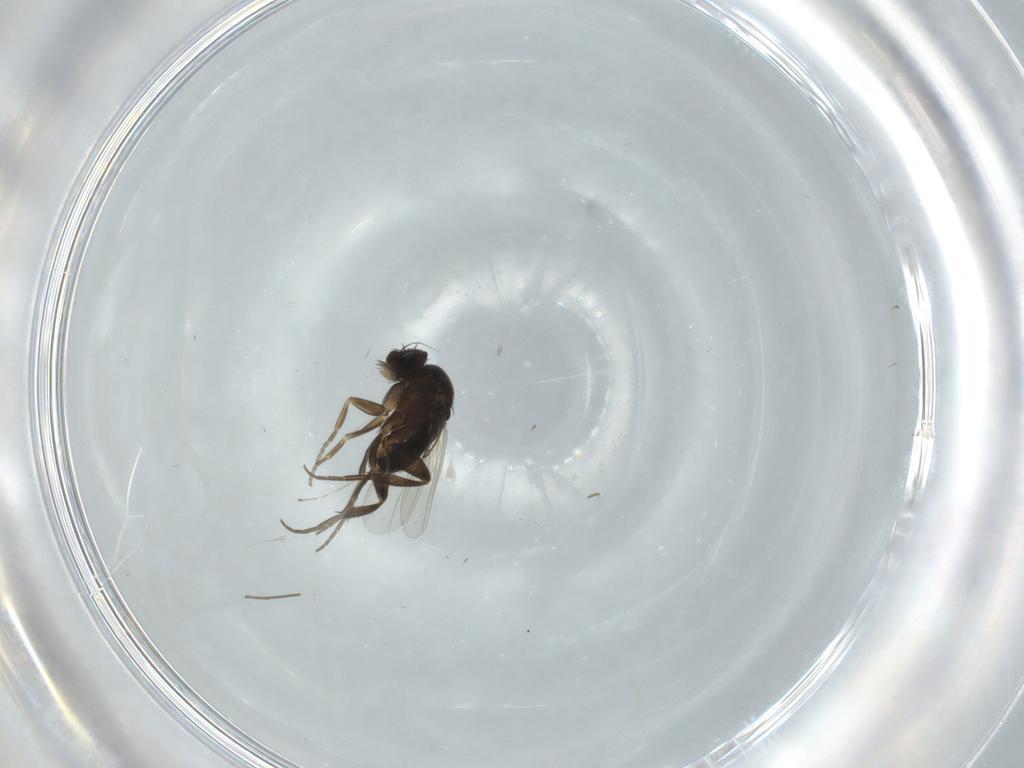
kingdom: Animalia
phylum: Arthropoda
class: Insecta
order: Diptera
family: Phoridae
